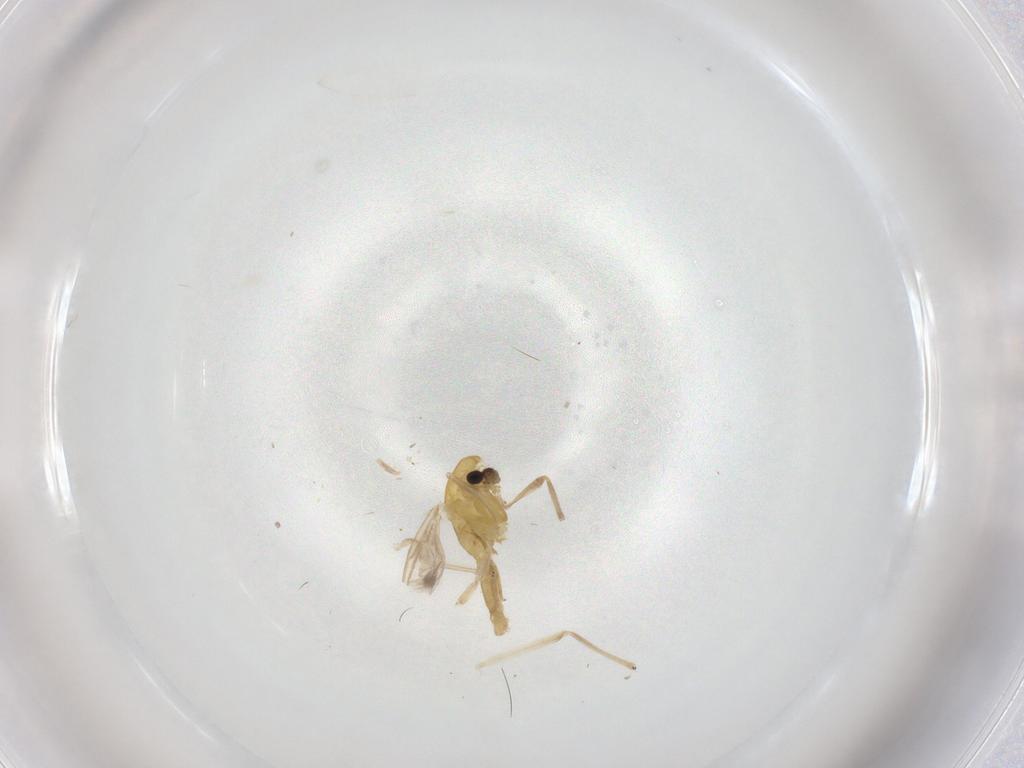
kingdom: Animalia
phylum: Arthropoda
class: Insecta
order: Diptera
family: Chironomidae
